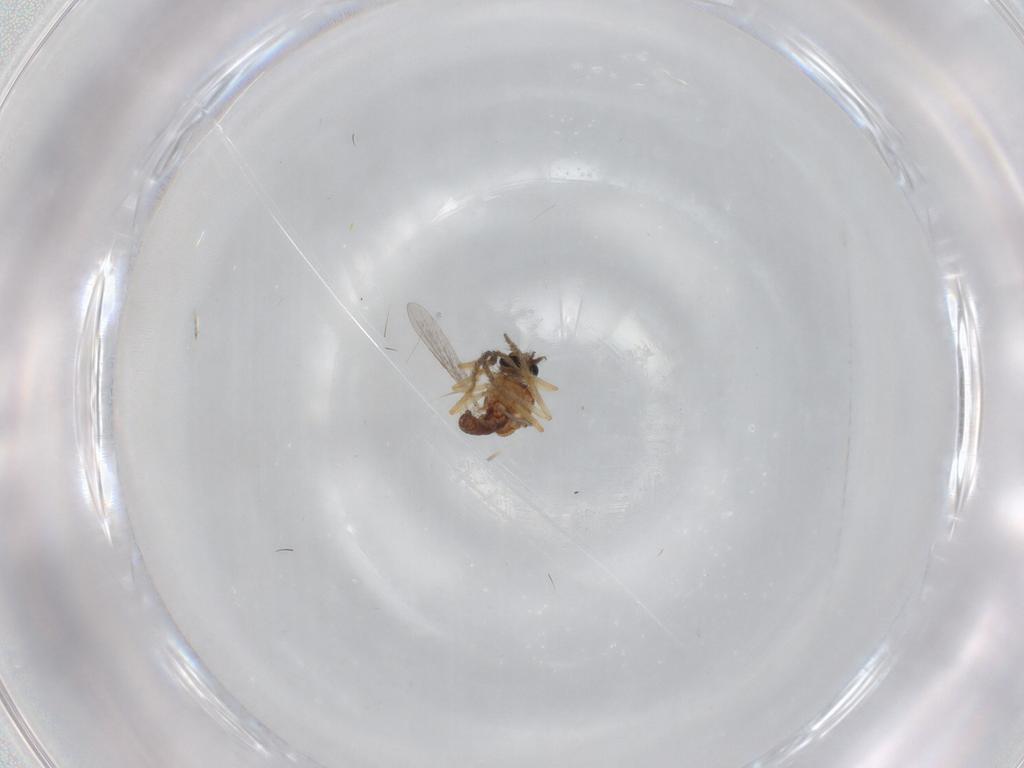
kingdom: Animalia
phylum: Arthropoda
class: Insecta
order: Diptera
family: Ceratopogonidae
